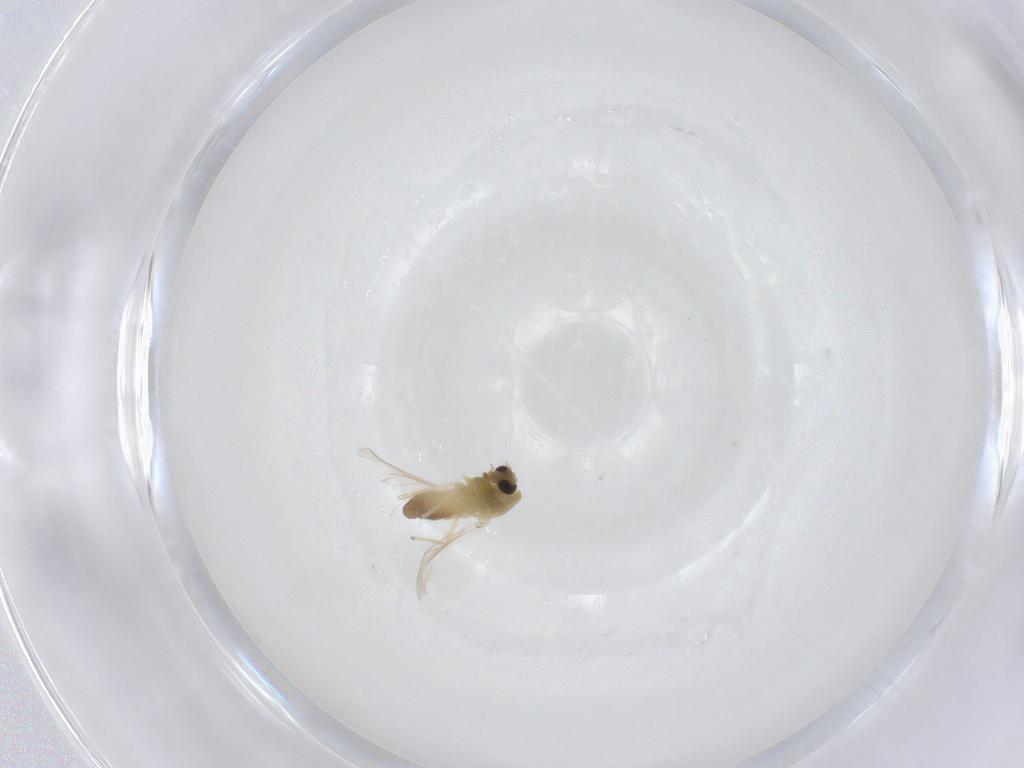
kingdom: Animalia
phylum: Arthropoda
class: Insecta
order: Diptera
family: Chironomidae
